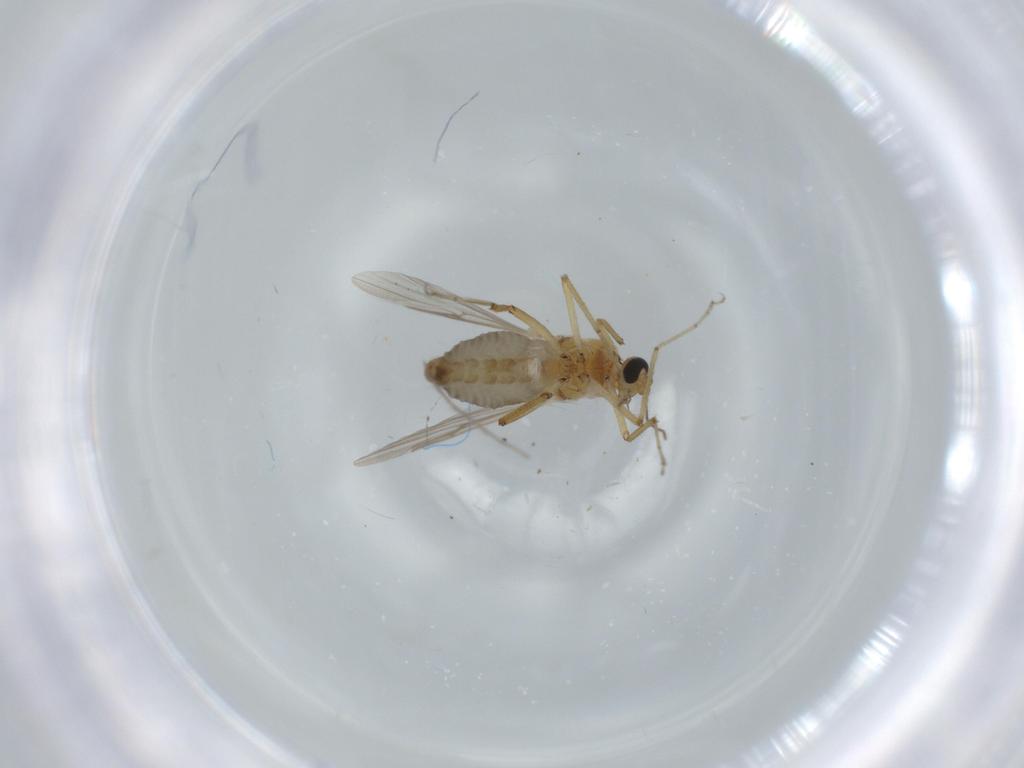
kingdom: Animalia
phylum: Arthropoda
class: Insecta
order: Diptera
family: Ceratopogonidae
